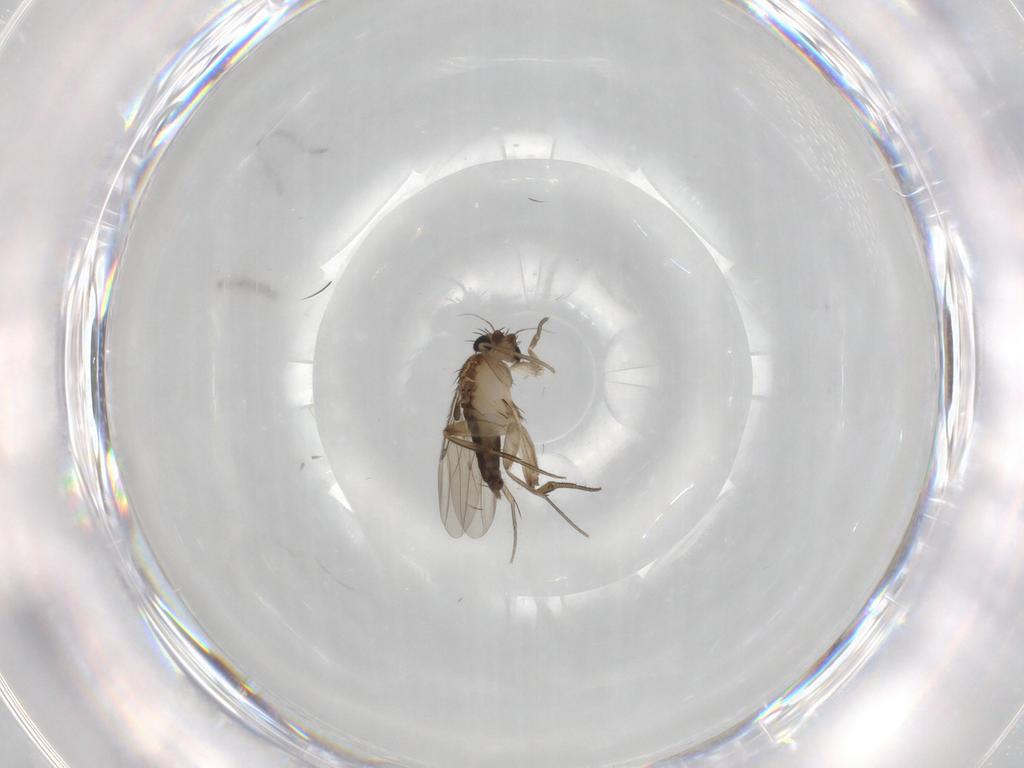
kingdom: Animalia
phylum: Arthropoda
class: Insecta
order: Diptera
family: Phoridae
